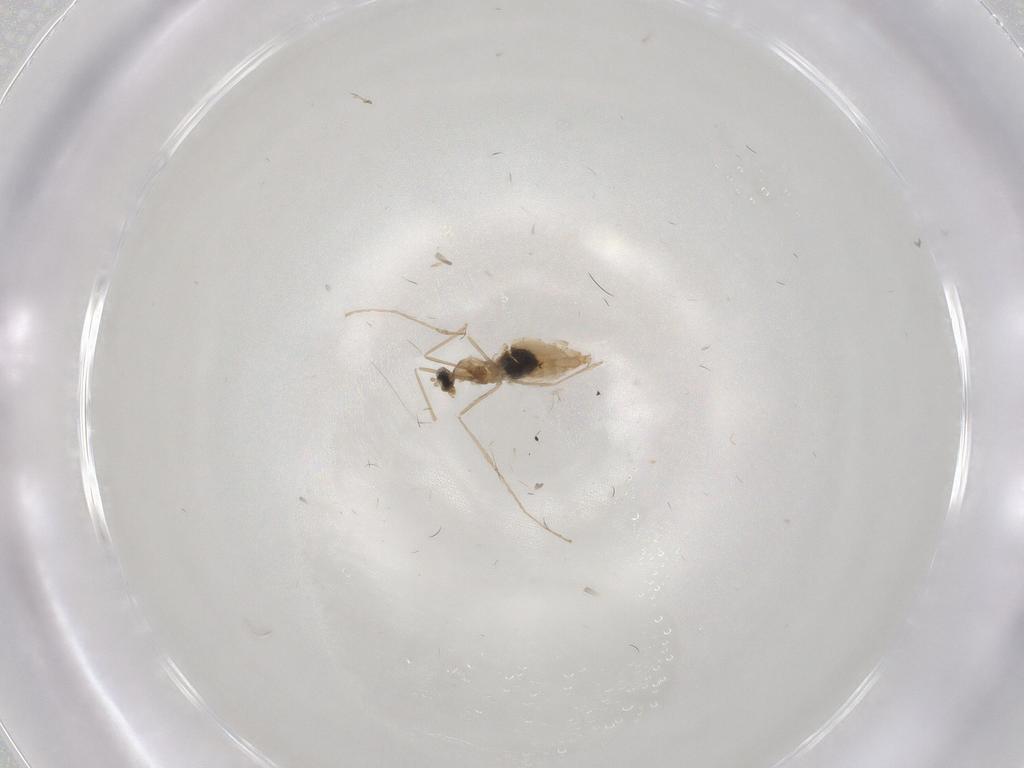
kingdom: Animalia
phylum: Arthropoda
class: Insecta
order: Diptera
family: Cecidomyiidae
